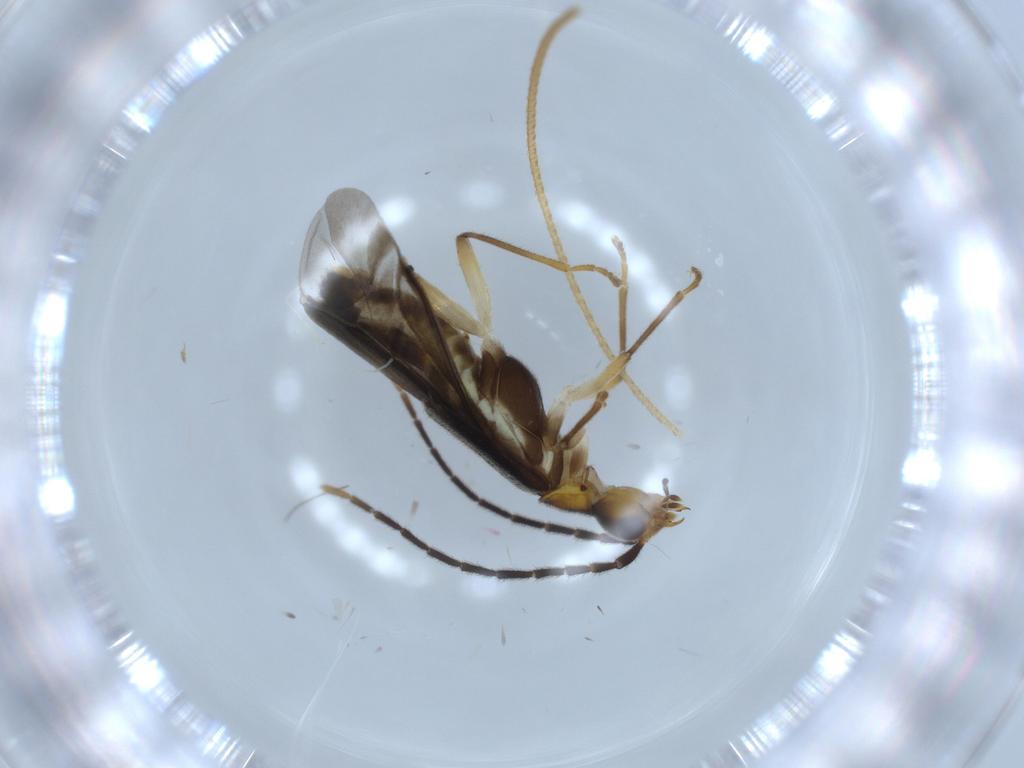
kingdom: Animalia
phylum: Arthropoda
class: Insecta
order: Coleoptera
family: Cantharidae
